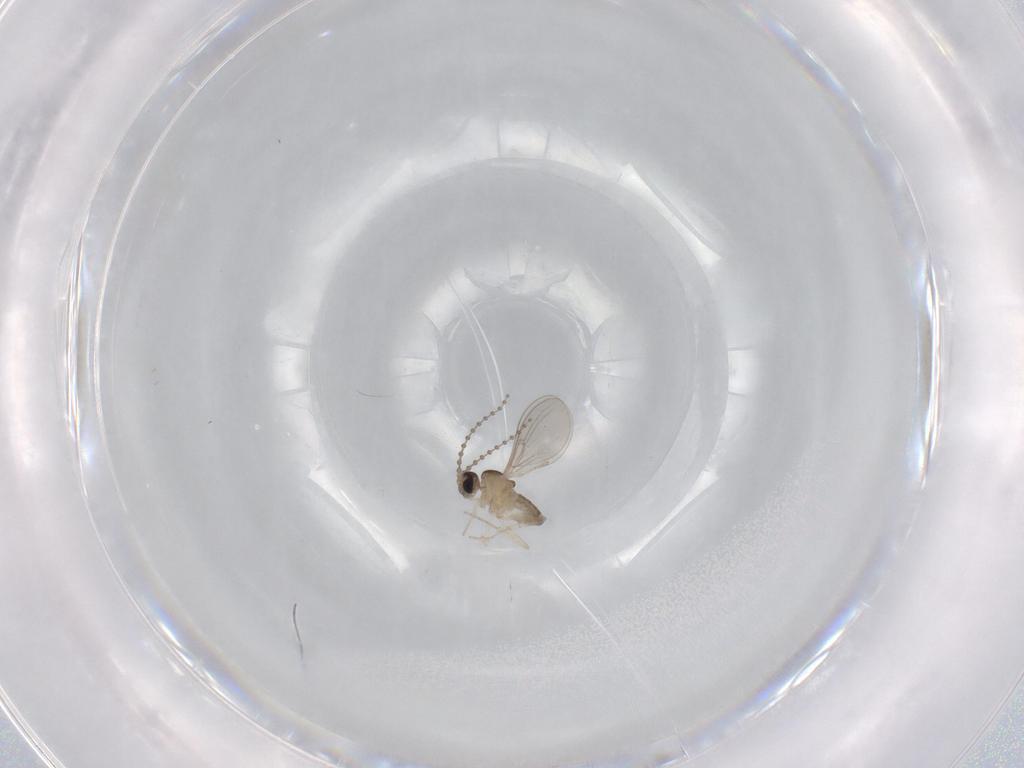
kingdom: Animalia
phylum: Arthropoda
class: Insecta
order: Diptera
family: Cecidomyiidae
